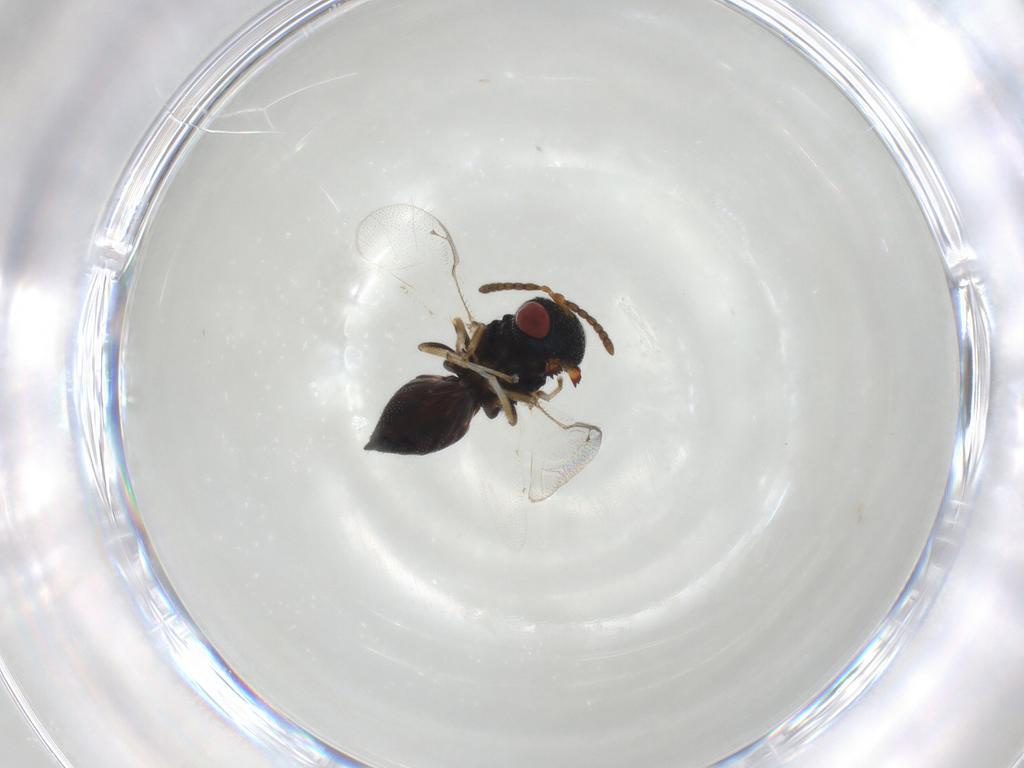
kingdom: Animalia
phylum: Arthropoda
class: Insecta
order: Hymenoptera
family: Pteromalidae
